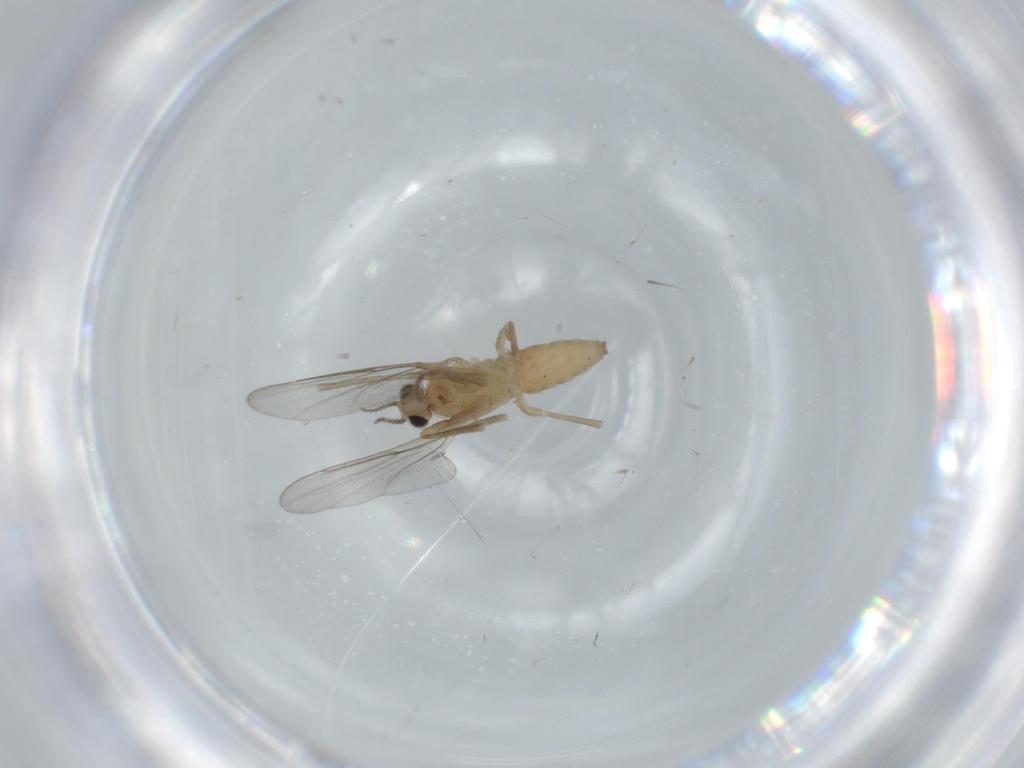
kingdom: Animalia
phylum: Arthropoda
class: Insecta
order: Diptera
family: Cecidomyiidae
